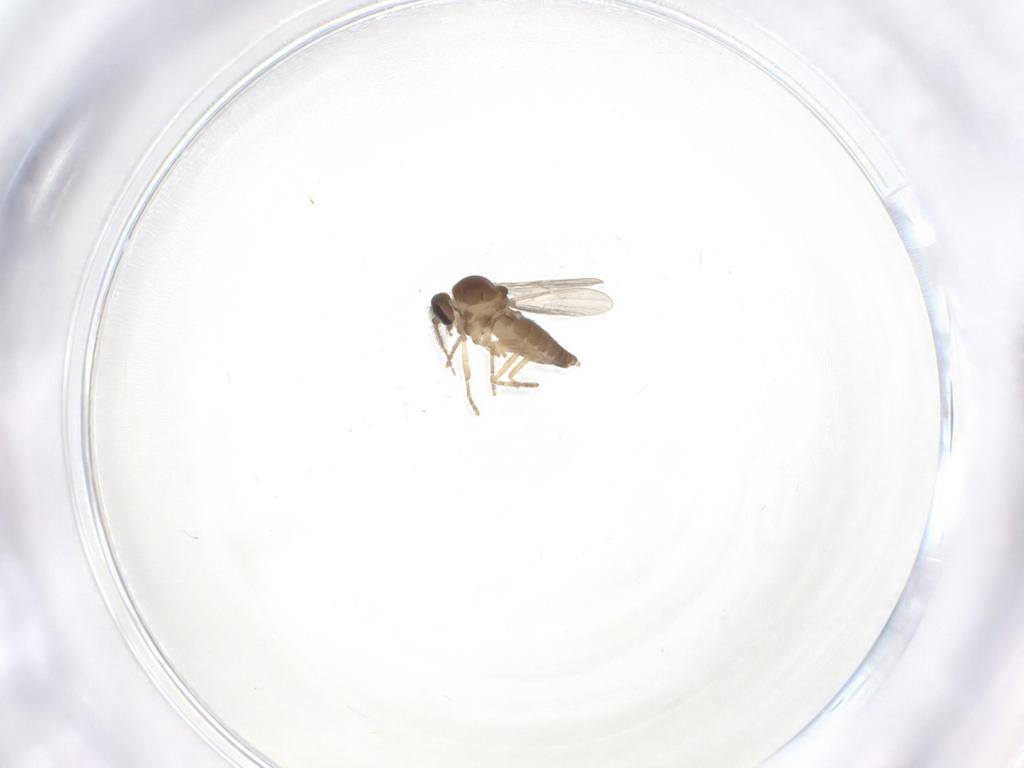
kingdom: Animalia
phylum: Arthropoda
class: Insecta
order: Diptera
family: Ceratopogonidae
